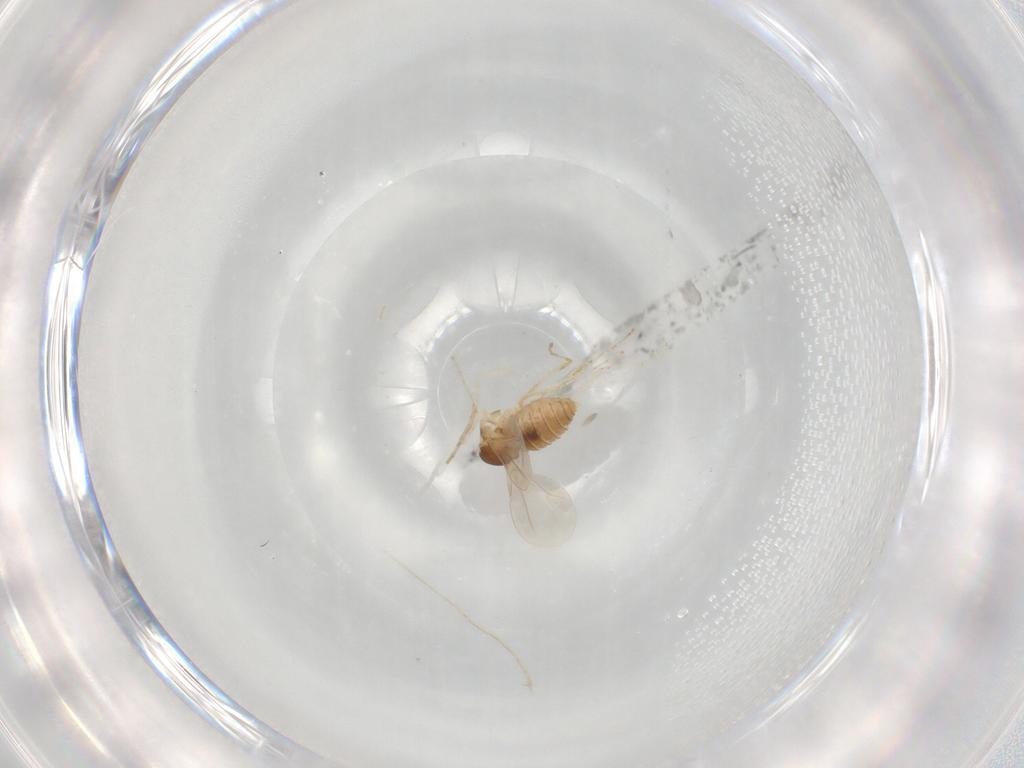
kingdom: Animalia
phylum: Arthropoda
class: Insecta
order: Diptera
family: Cecidomyiidae
